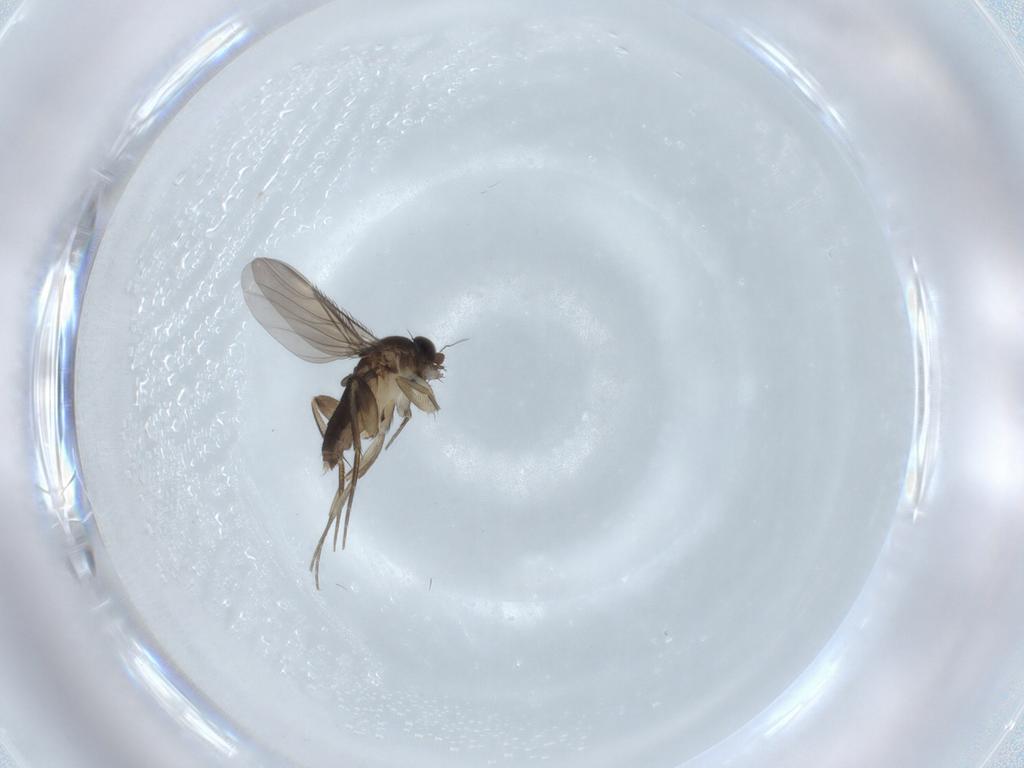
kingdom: Animalia
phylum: Arthropoda
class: Insecta
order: Diptera
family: Phoridae
